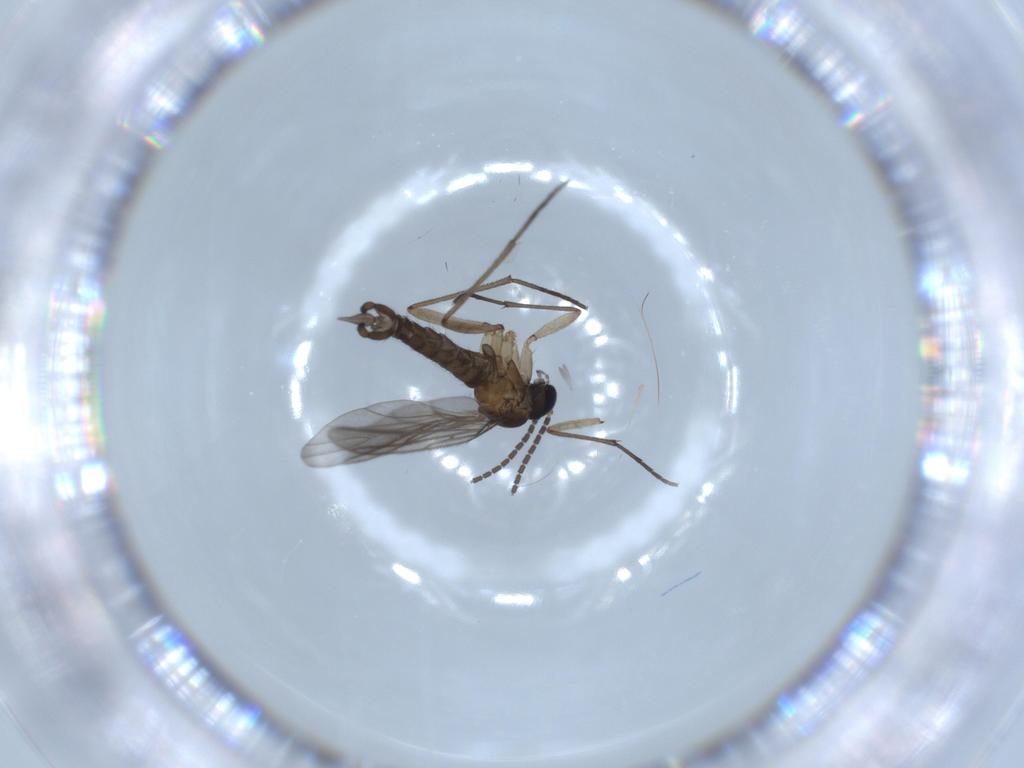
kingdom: Animalia
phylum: Arthropoda
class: Insecta
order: Diptera
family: Sciaridae
